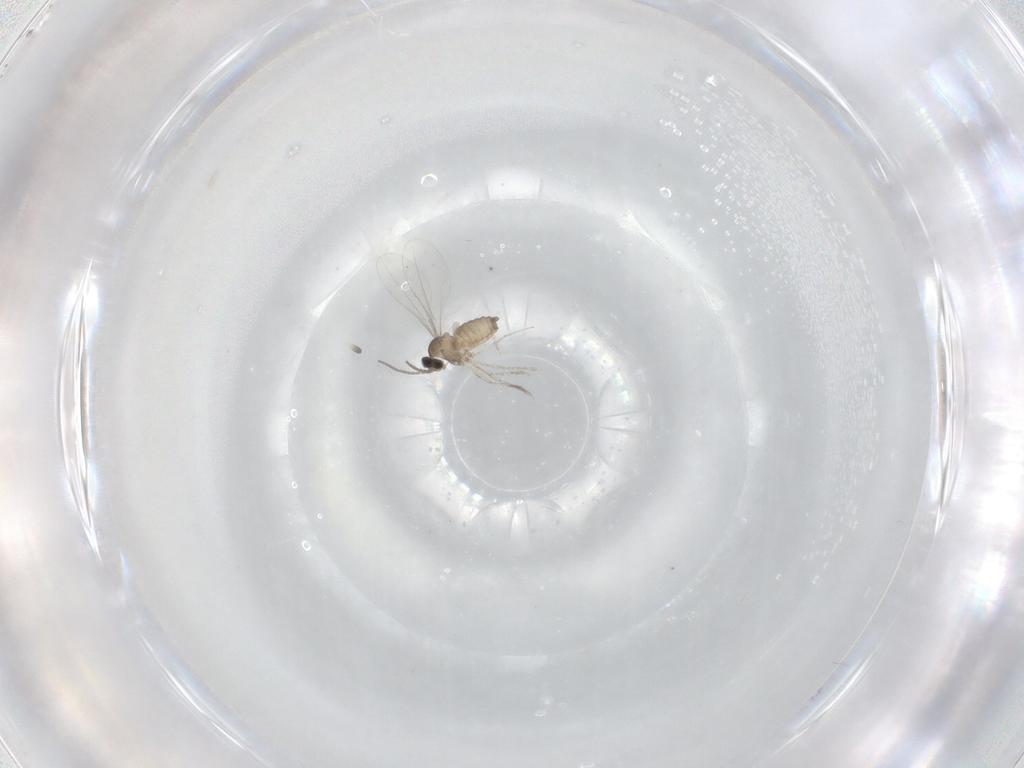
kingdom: Animalia
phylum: Arthropoda
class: Insecta
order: Diptera
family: Cecidomyiidae
